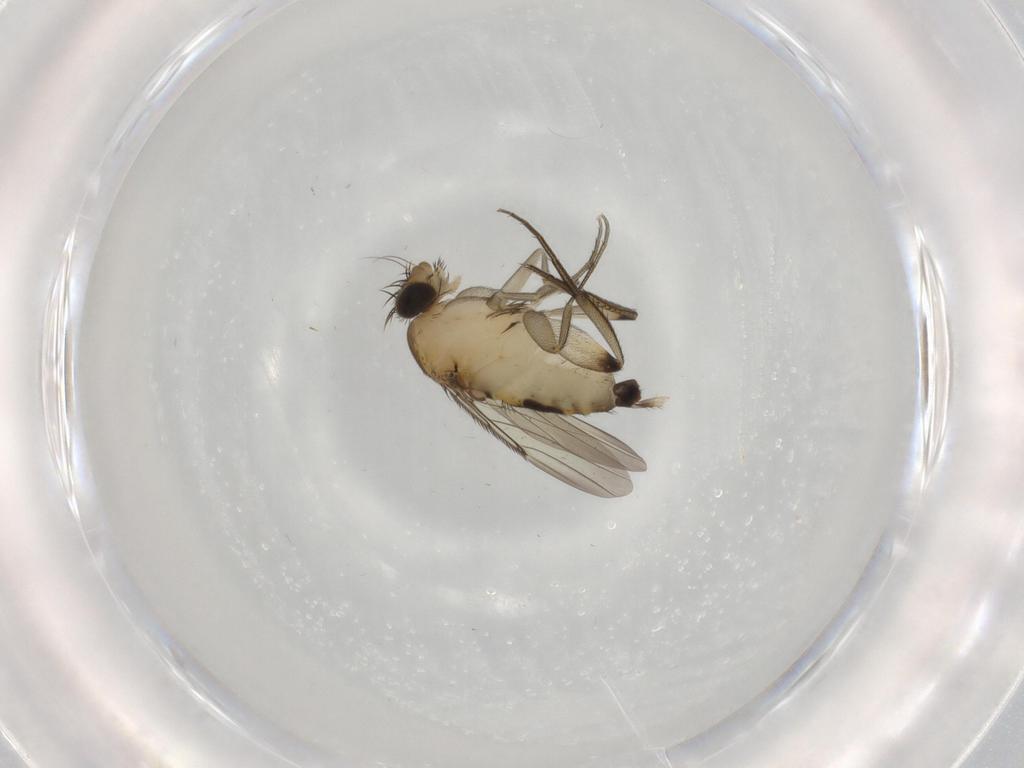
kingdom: Animalia
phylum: Arthropoda
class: Insecta
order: Diptera
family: Phoridae
